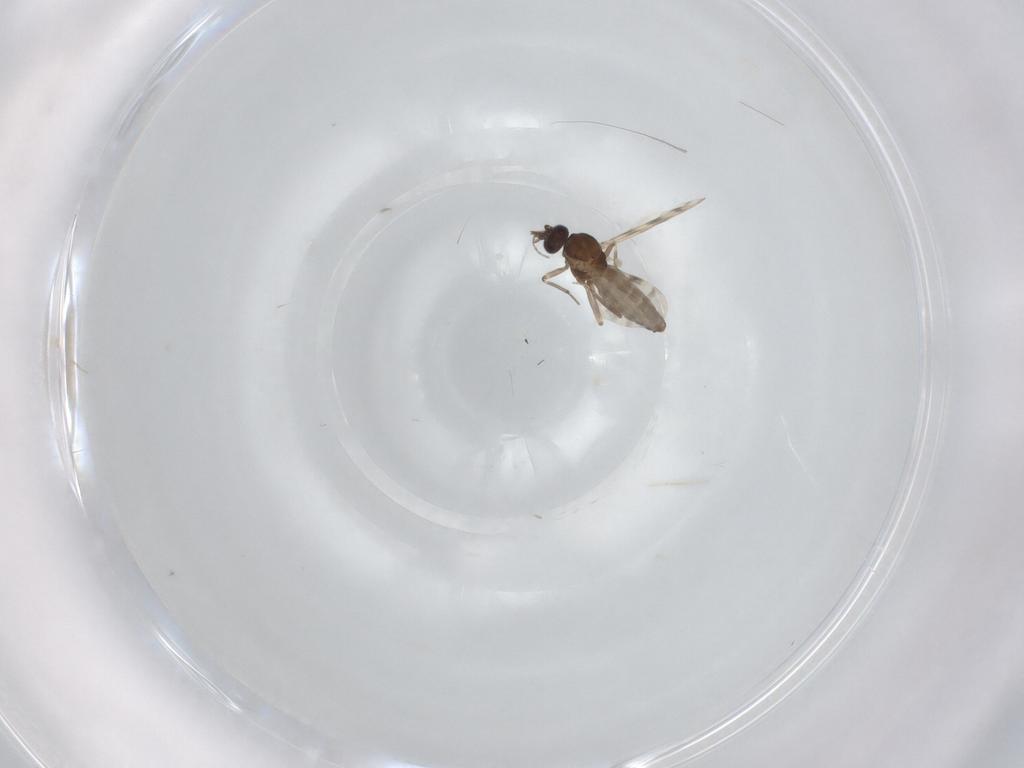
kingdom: Animalia
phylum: Arthropoda
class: Insecta
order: Diptera
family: Ceratopogonidae
